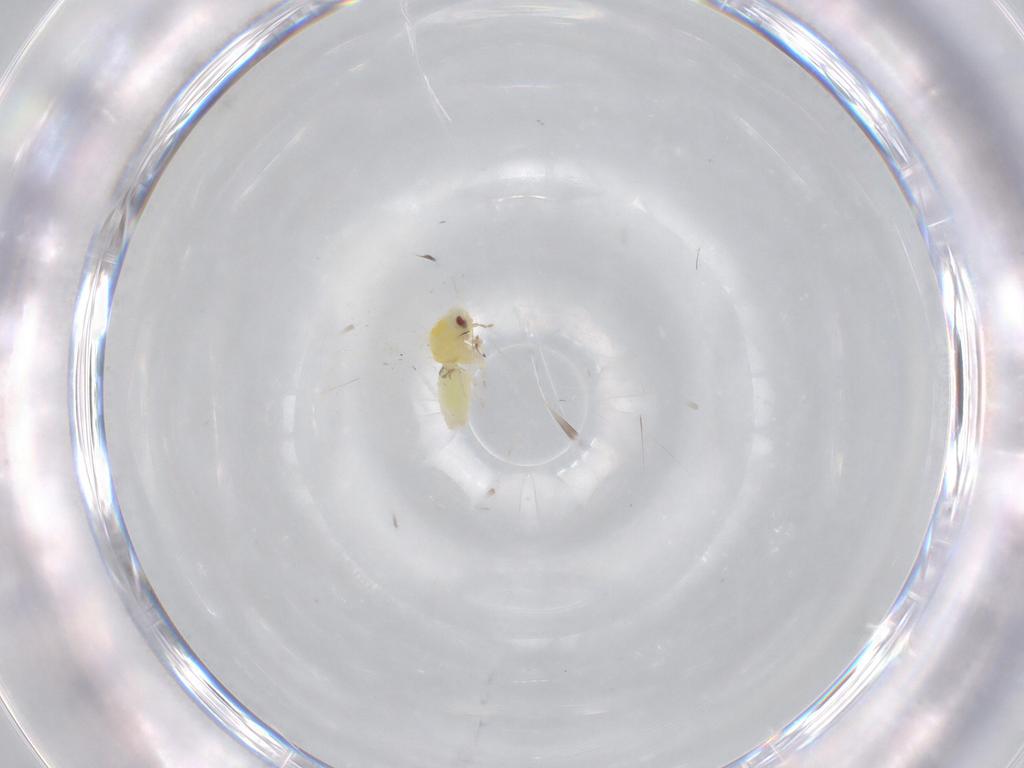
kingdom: Animalia
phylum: Arthropoda
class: Insecta
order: Hemiptera
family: Aleyrodidae
